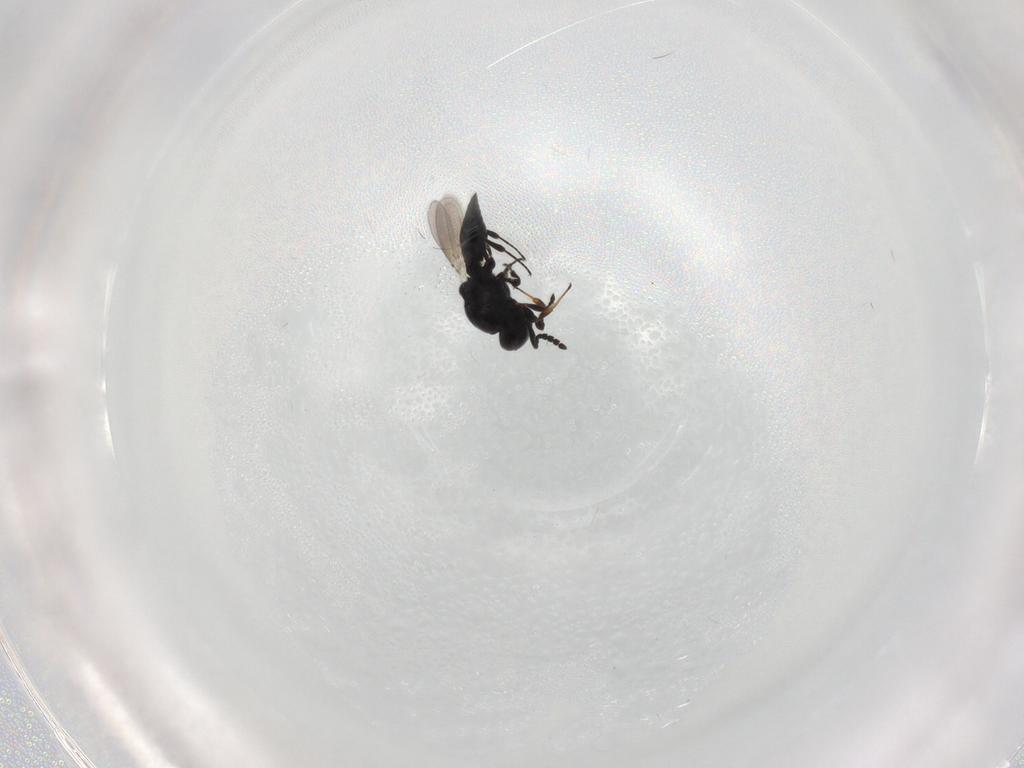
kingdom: Animalia
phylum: Arthropoda
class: Insecta
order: Hymenoptera
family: Platygastridae
